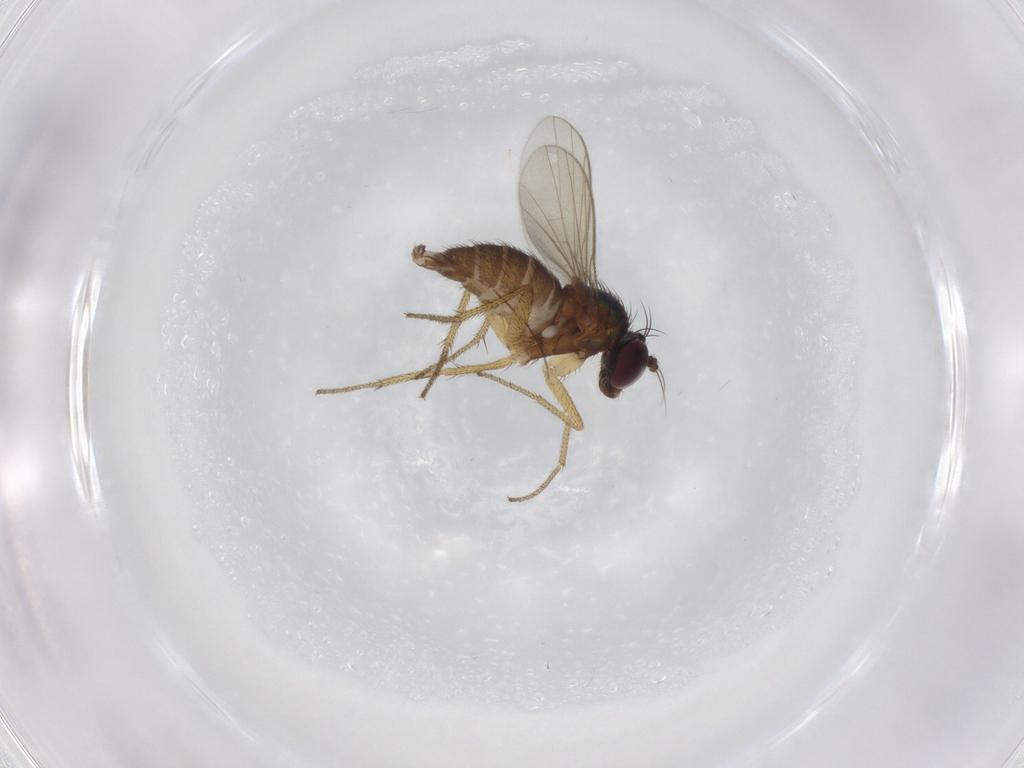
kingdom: Animalia
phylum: Arthropoda
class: Insecta
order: Diptera
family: Dolichopodidae
